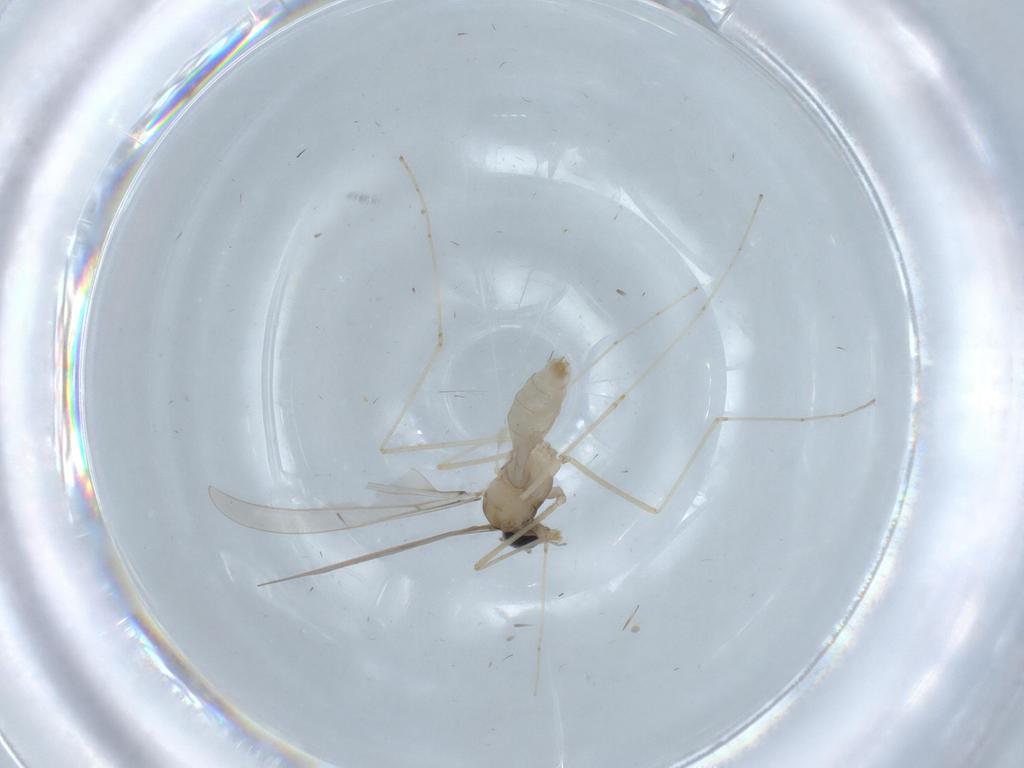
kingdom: Animalia
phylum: Arthropoda
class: Insecta
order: Diptera
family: Cecidomyiidae
